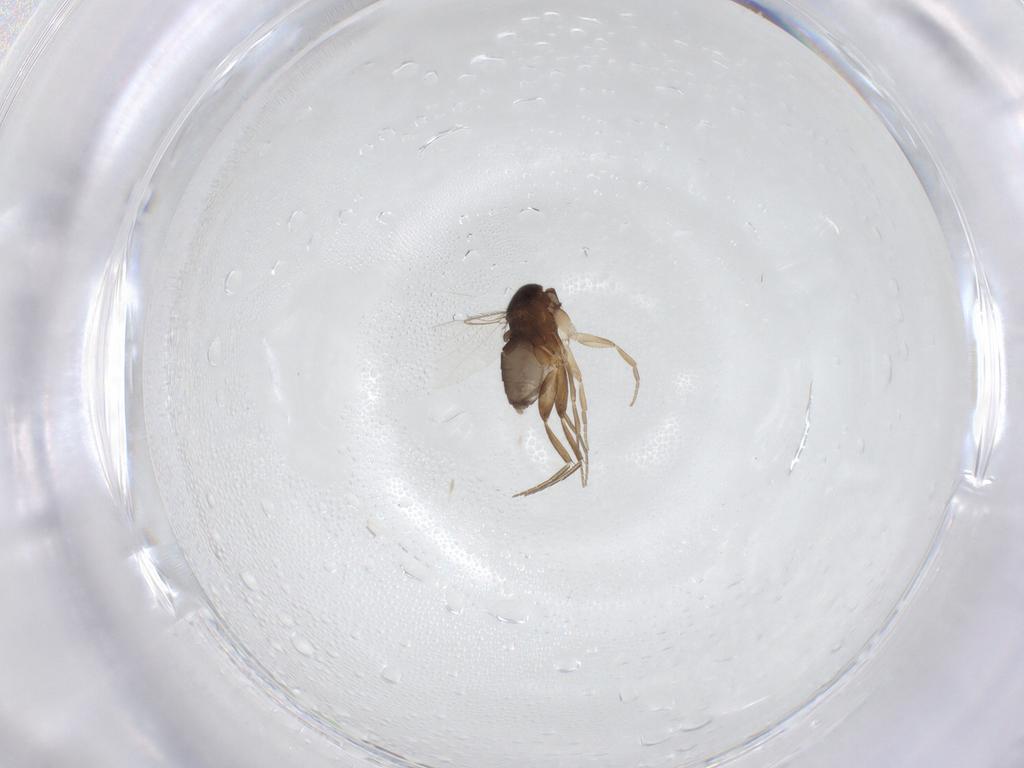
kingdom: Animalia
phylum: Arthropoda
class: Insecta
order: Diptera
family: Phoridae
